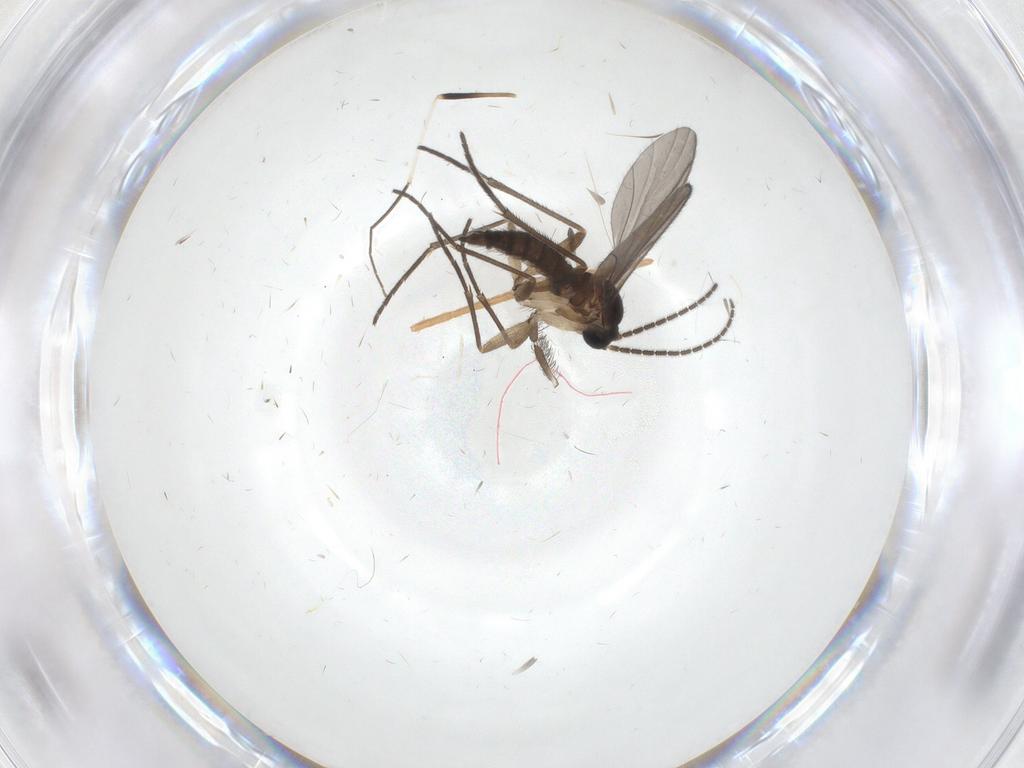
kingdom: Animalia
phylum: Arthropoda
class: Insecta
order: Diptera
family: Sciaridae
